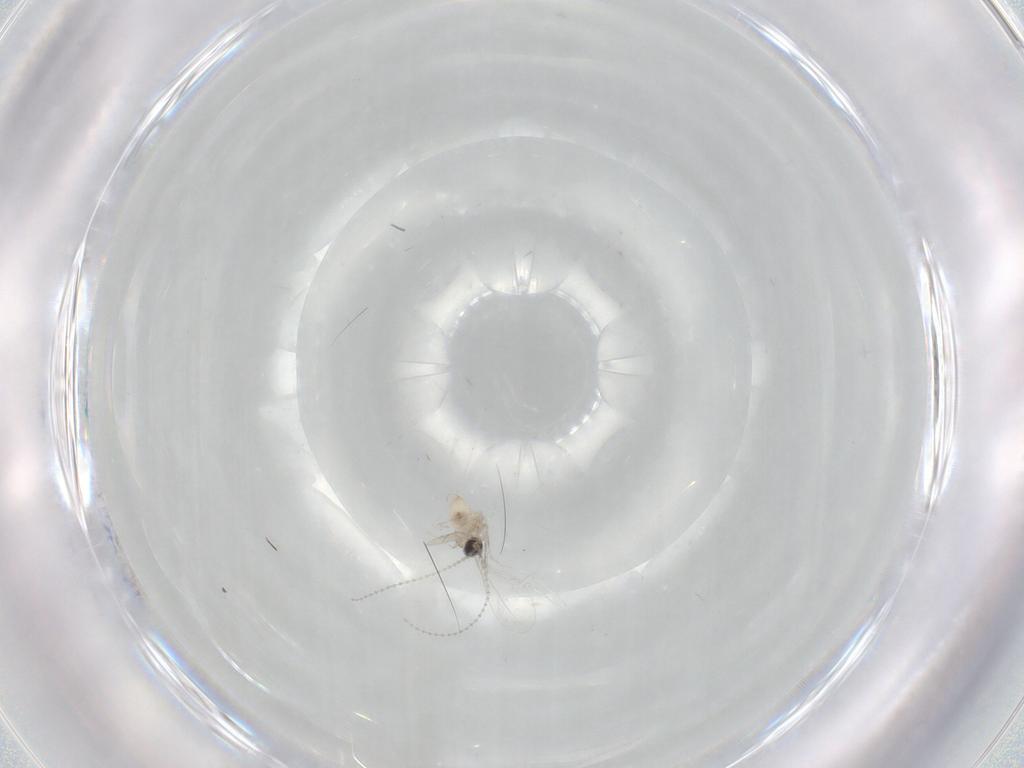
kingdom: Animalia
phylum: Arthropoda
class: Insecta
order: Diptera
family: Cecidomyiidae
